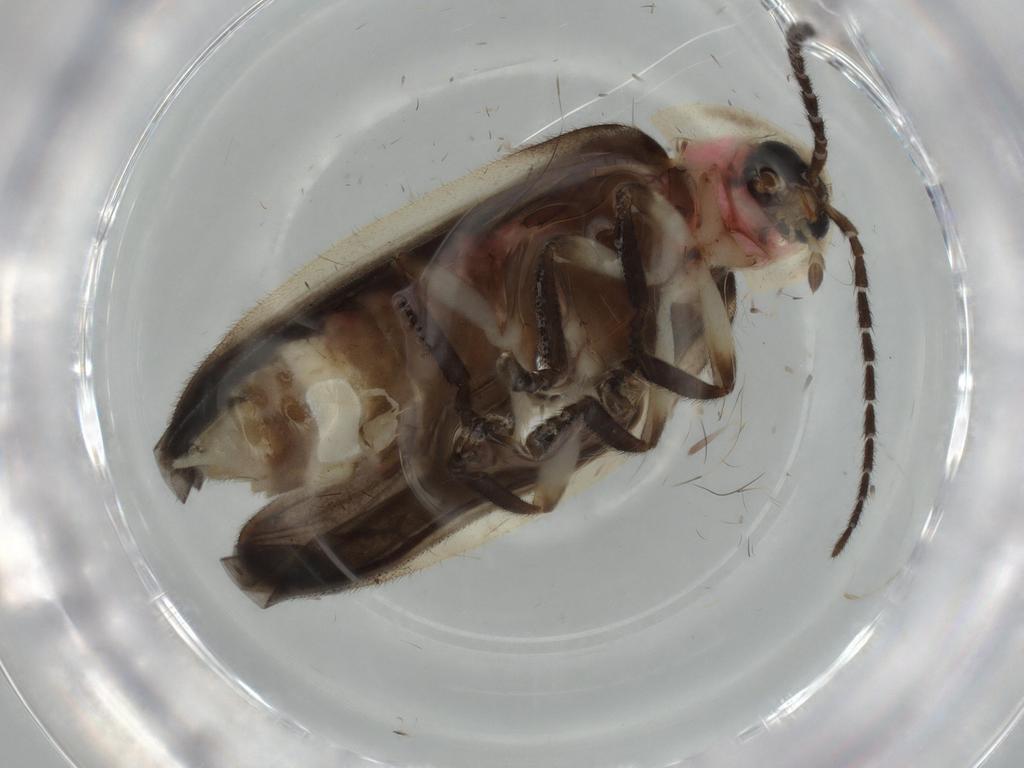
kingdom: Animalia
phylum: Arthropoda
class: Insecta
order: Coleoptera
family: Lampyridae
